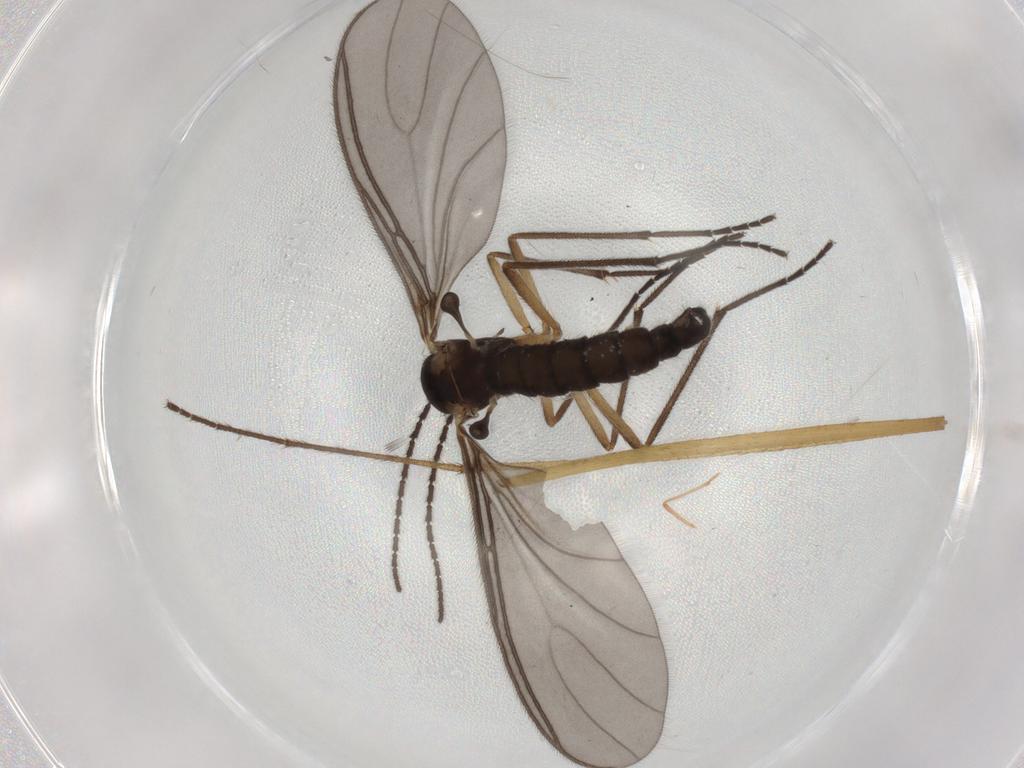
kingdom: Animalia
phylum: Arthropoda
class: Insecta
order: Diptera
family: Sciaridae
